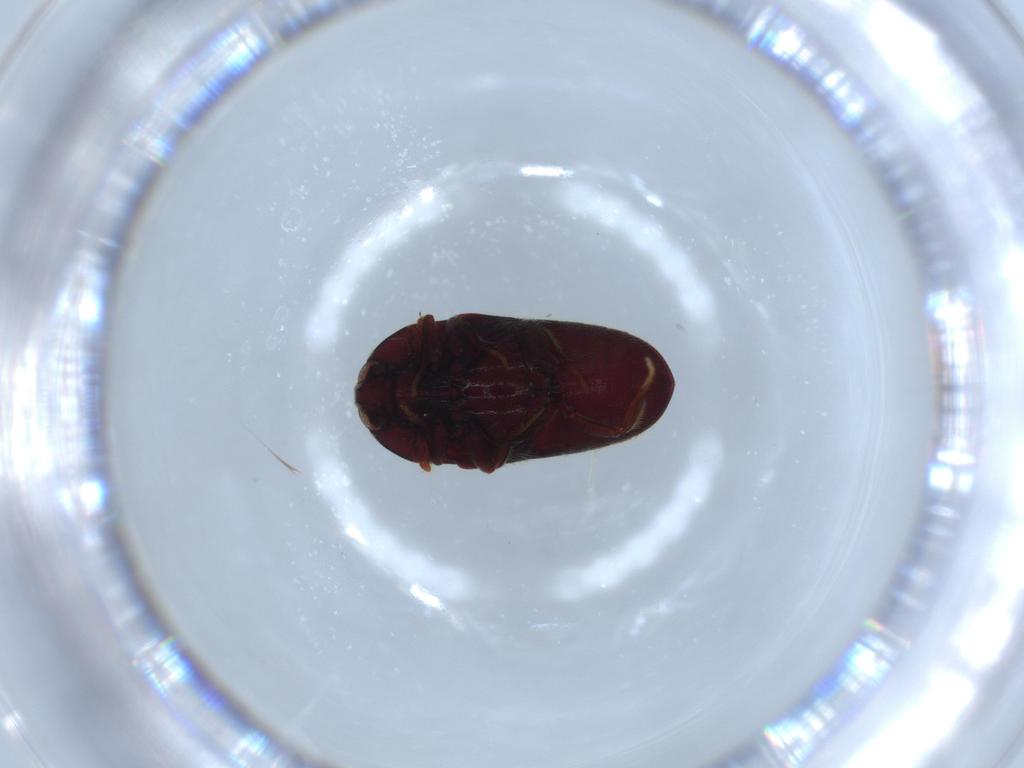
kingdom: Animalia
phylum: Arthropoda
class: Insecta
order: Coleoptera
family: Throscidae
